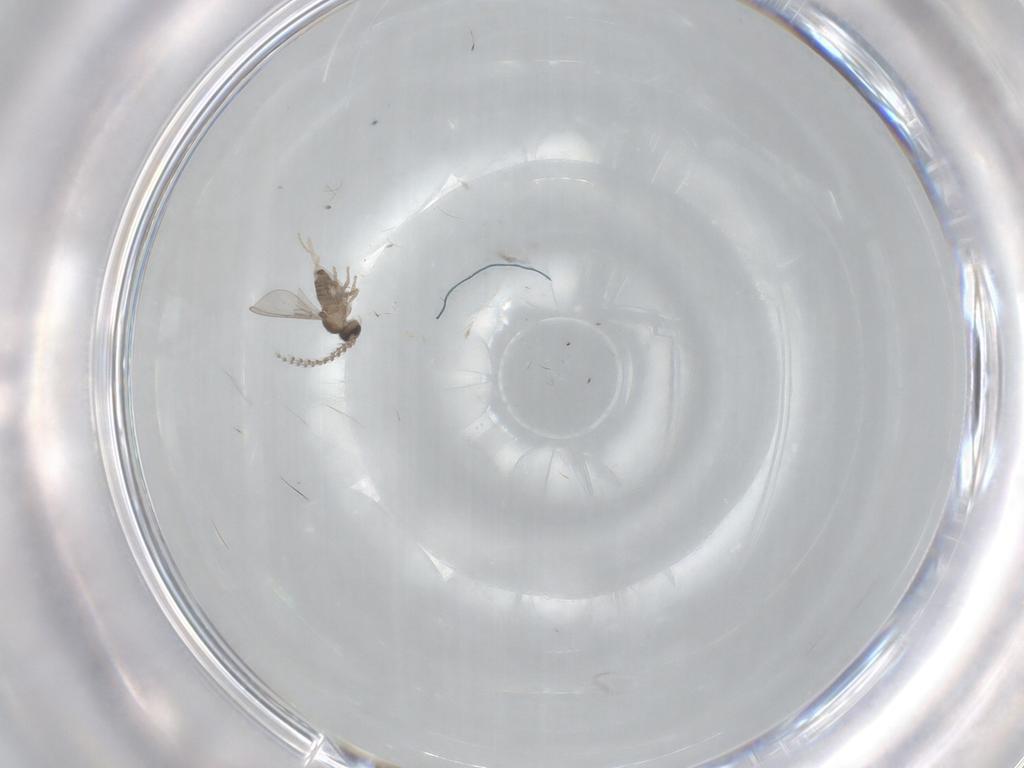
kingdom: Animalia
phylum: Arthropoda
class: Insecta
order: Diptera
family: Cecidomyiidae
